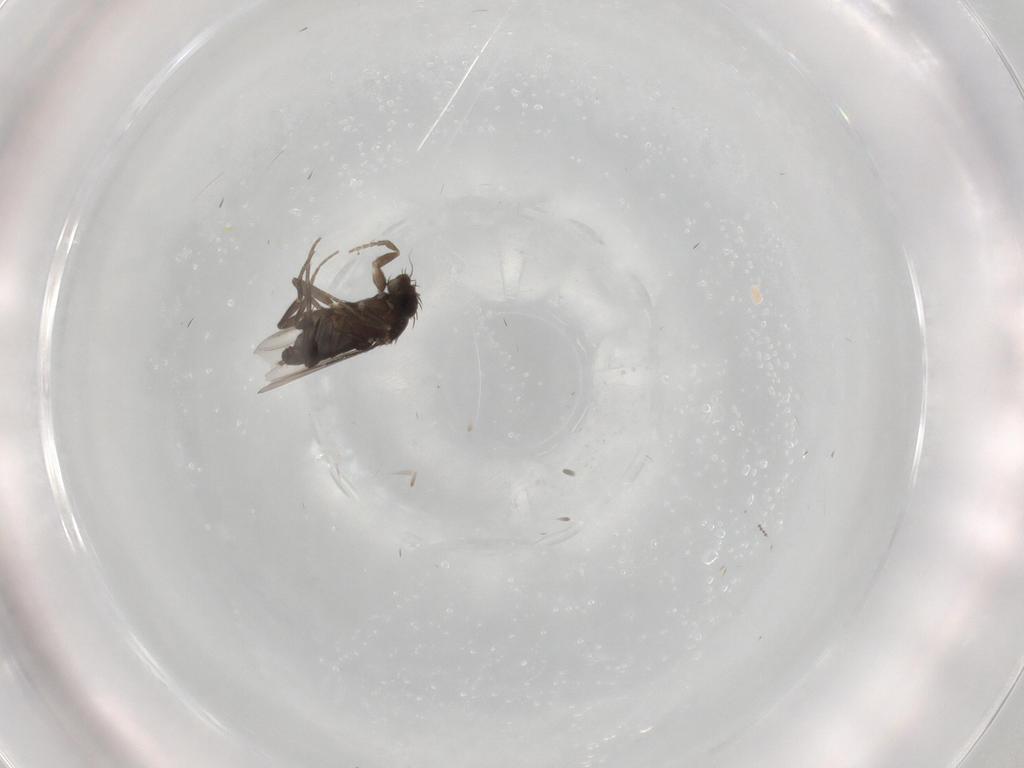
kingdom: Animalia
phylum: Arthropoda
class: Insecta
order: Diptera
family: Phoridae
